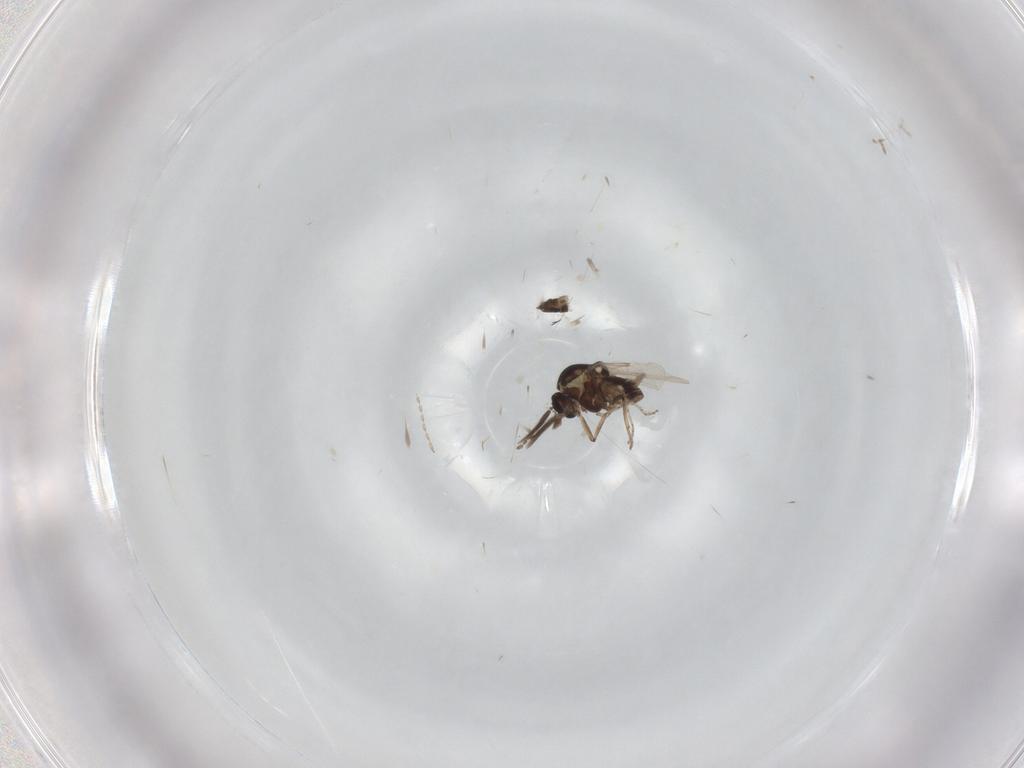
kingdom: Animalia
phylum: Arthropoda
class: Insecta
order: Diptera
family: Ceratopogonidae
